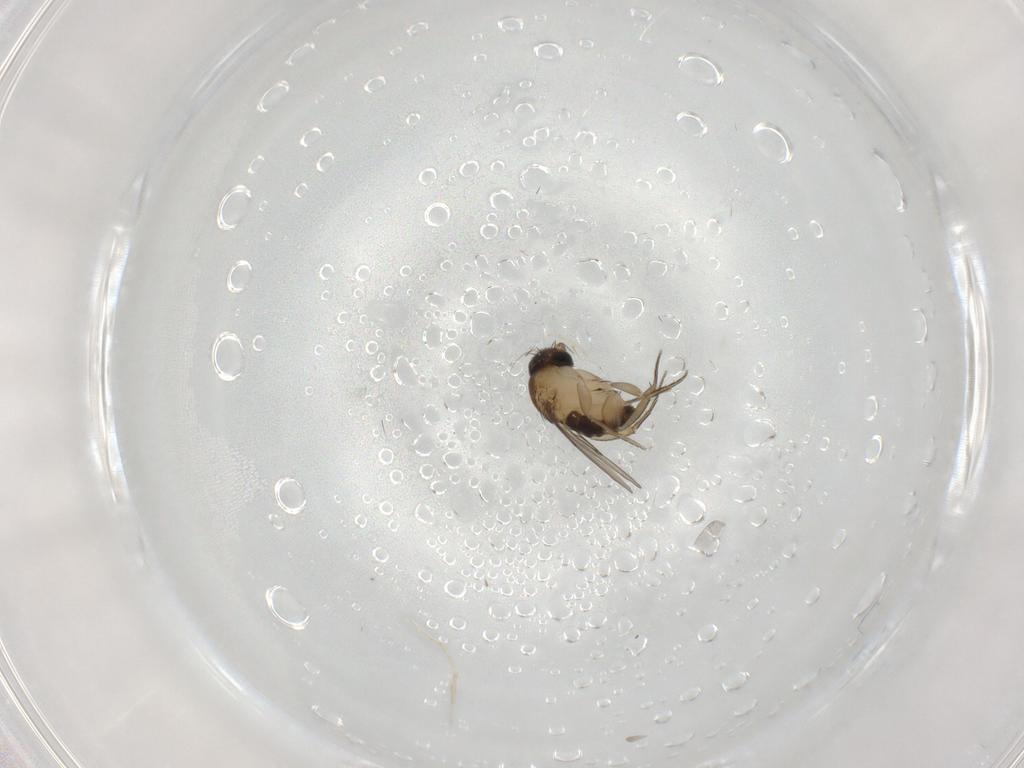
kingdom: Animalia
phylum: Arthropoda
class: Insecta
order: Diptera
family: Phoridae
